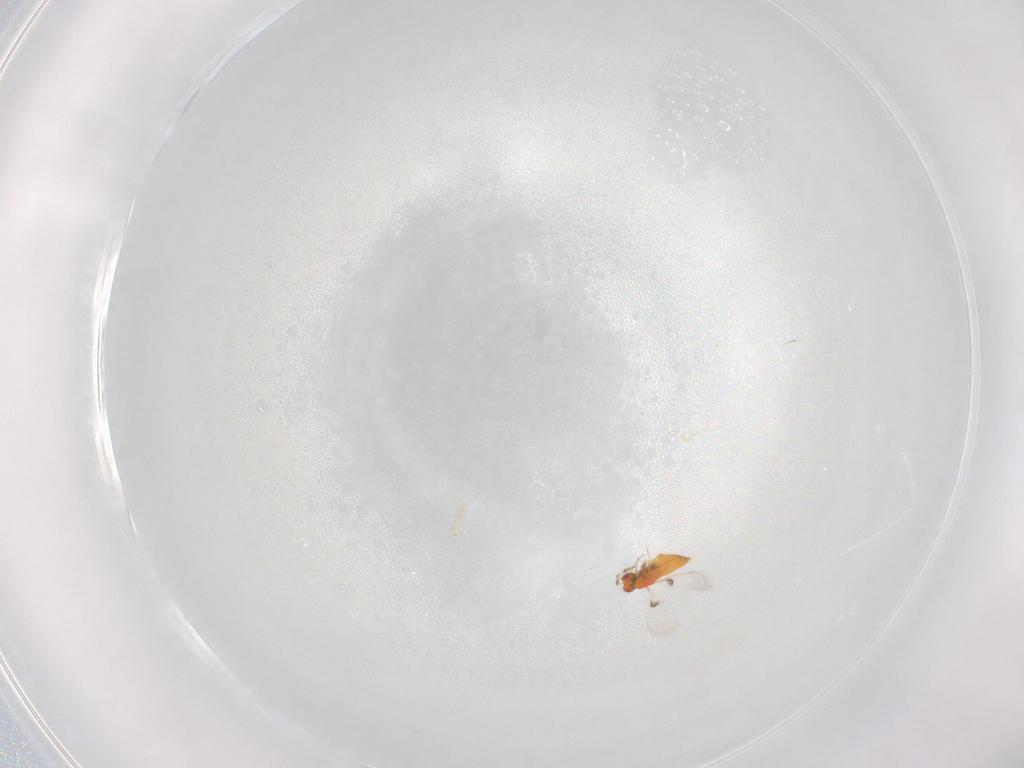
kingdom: Animalia
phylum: Arthropoda
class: Insecta
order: Hymenoptera
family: Trichogrammatidae
